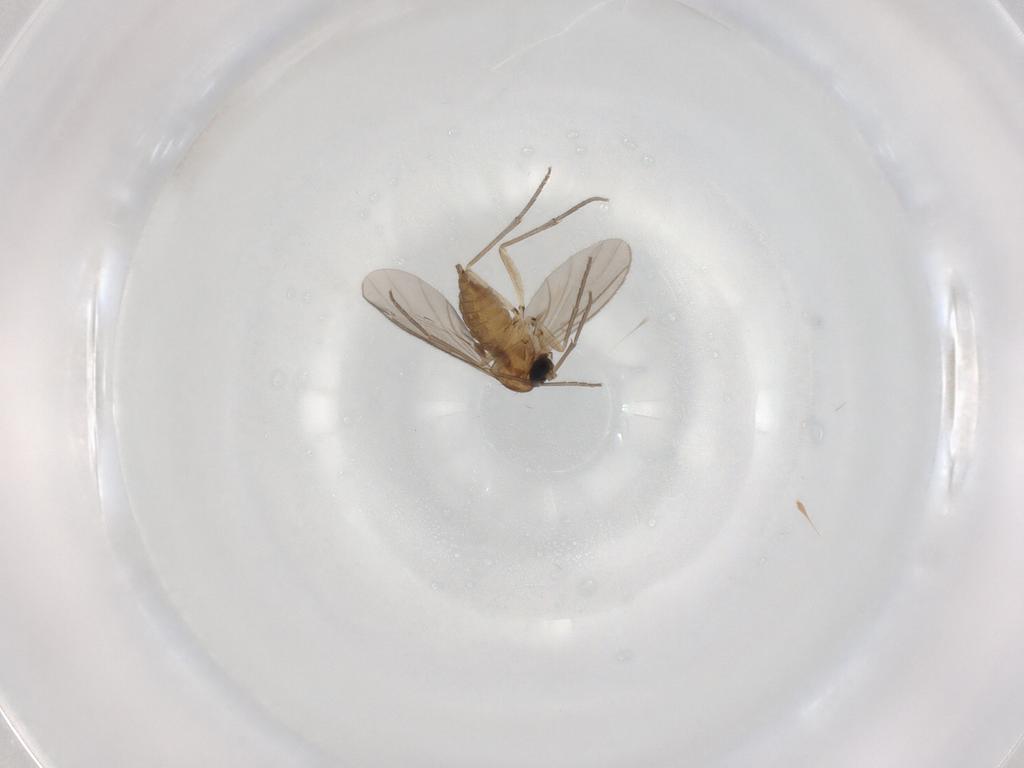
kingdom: Animalia
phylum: Arthropoda
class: Insecta
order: Diptera
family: Sciaridae
